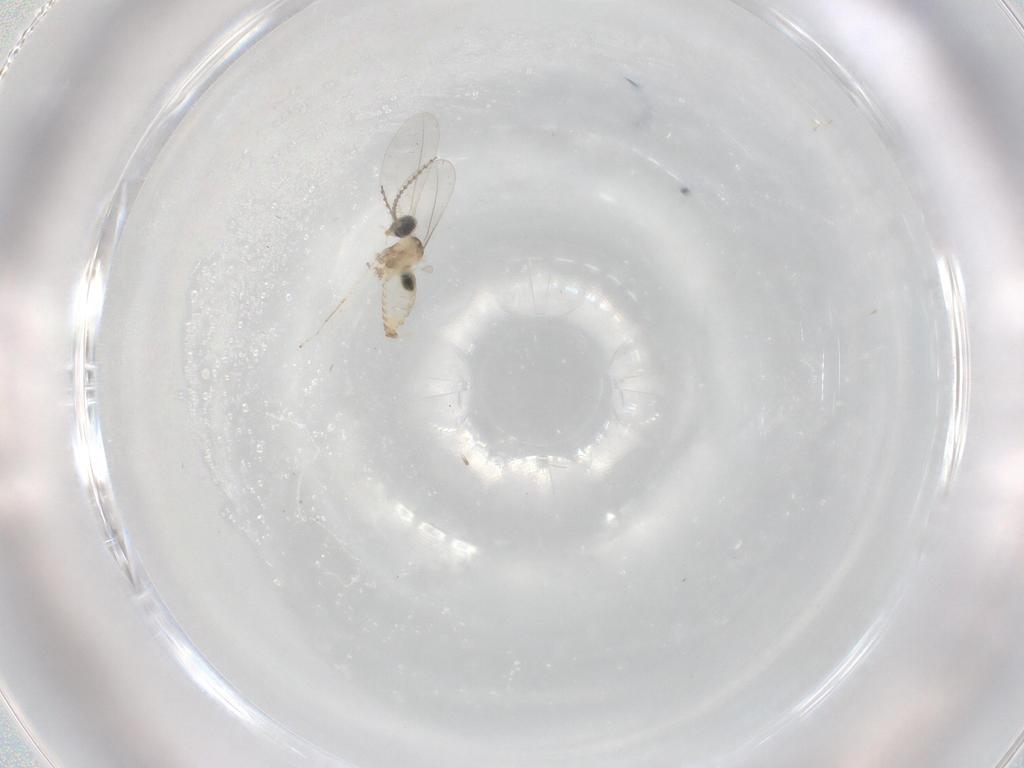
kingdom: Animalia
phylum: Arthropoda
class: Insecta
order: Diptera
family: Cecidomyiidae
